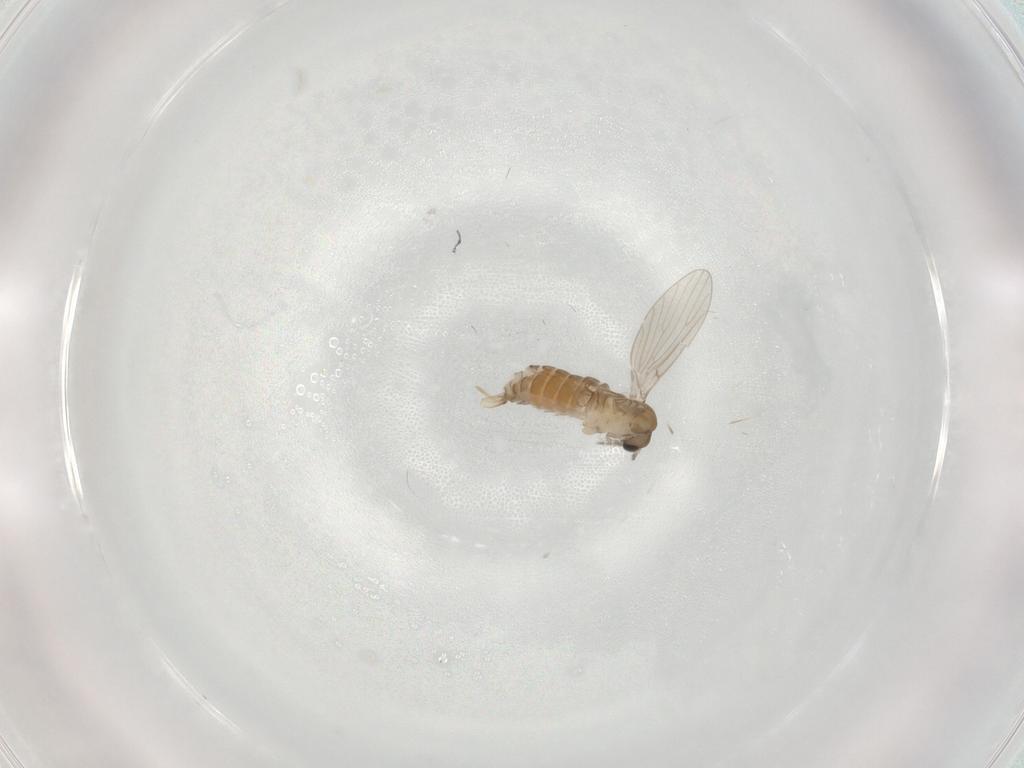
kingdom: Animalia
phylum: Arthropoda
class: Insecta
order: Diptera
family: Psychodidae
